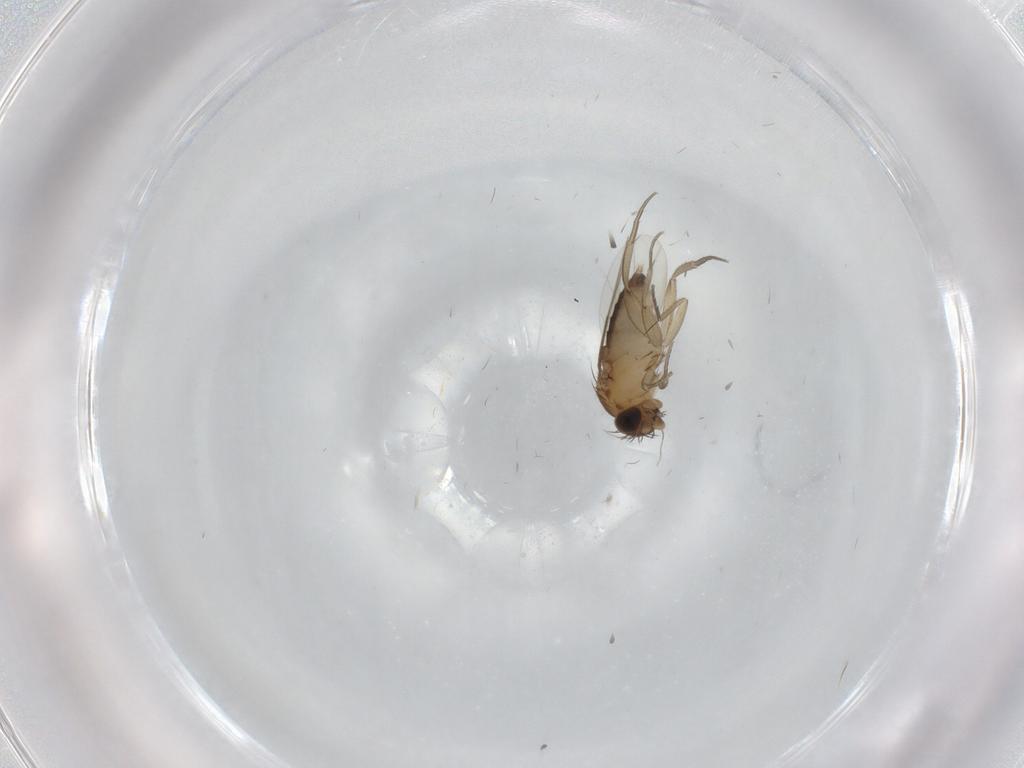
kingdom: Animalia
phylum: Arthropoda
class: Insecta
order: Diptera
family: Phoridae
